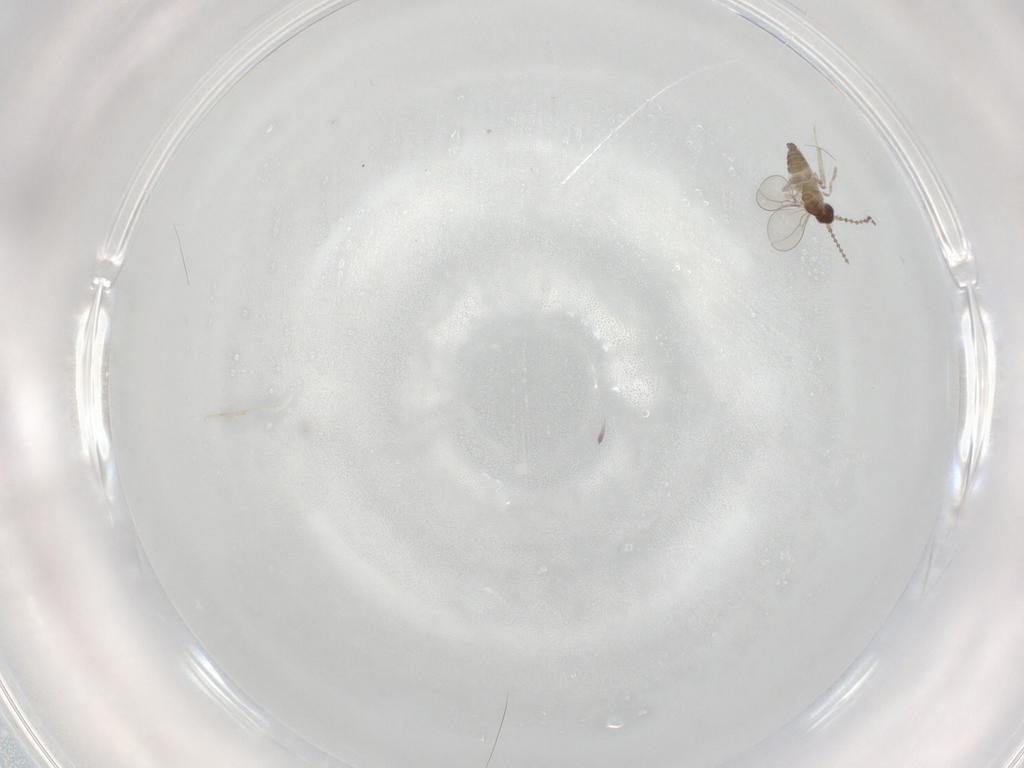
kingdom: Animalia
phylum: Arthropoda
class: Insecta
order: Diptera
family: Cecidomyiidae
